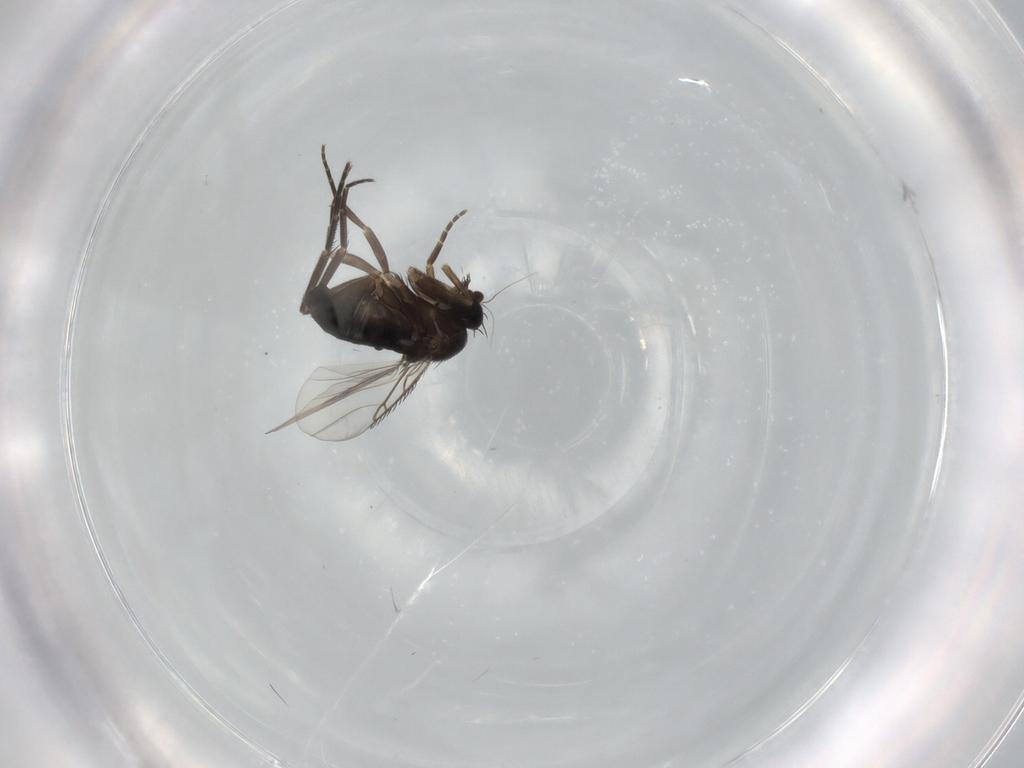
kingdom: Animalia
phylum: Arthropoda
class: Insecta
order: Diptera
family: Phoridae
